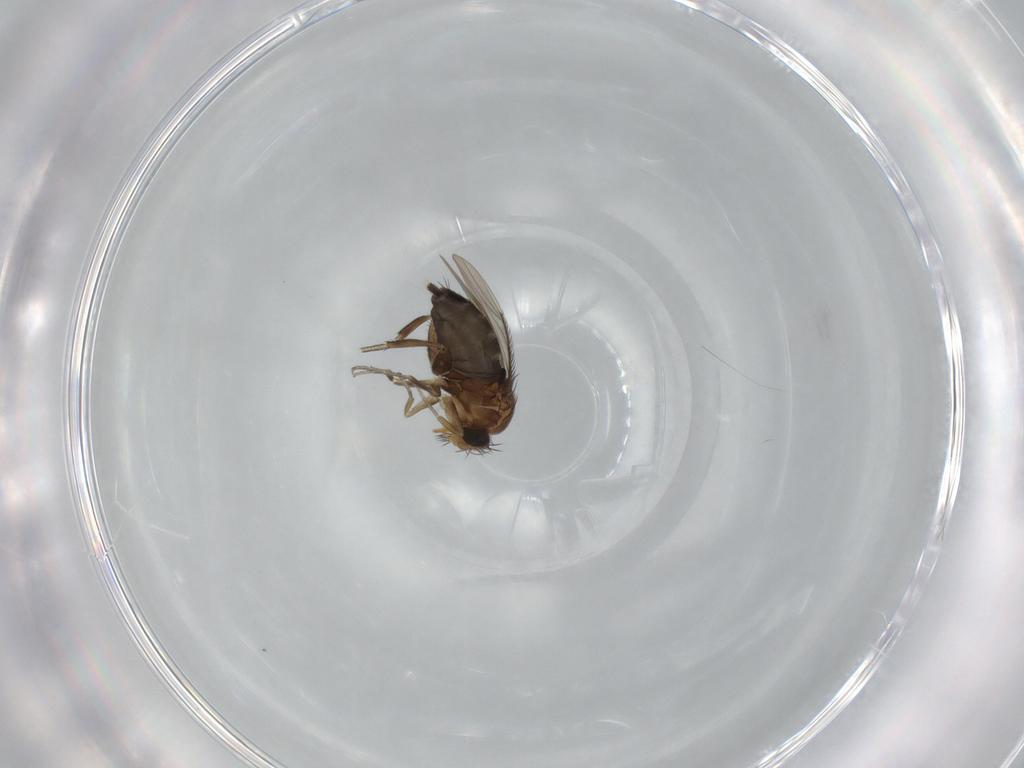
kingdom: Animalia
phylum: Arthropoda
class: Insecta
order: Diptera
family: Phoridae
